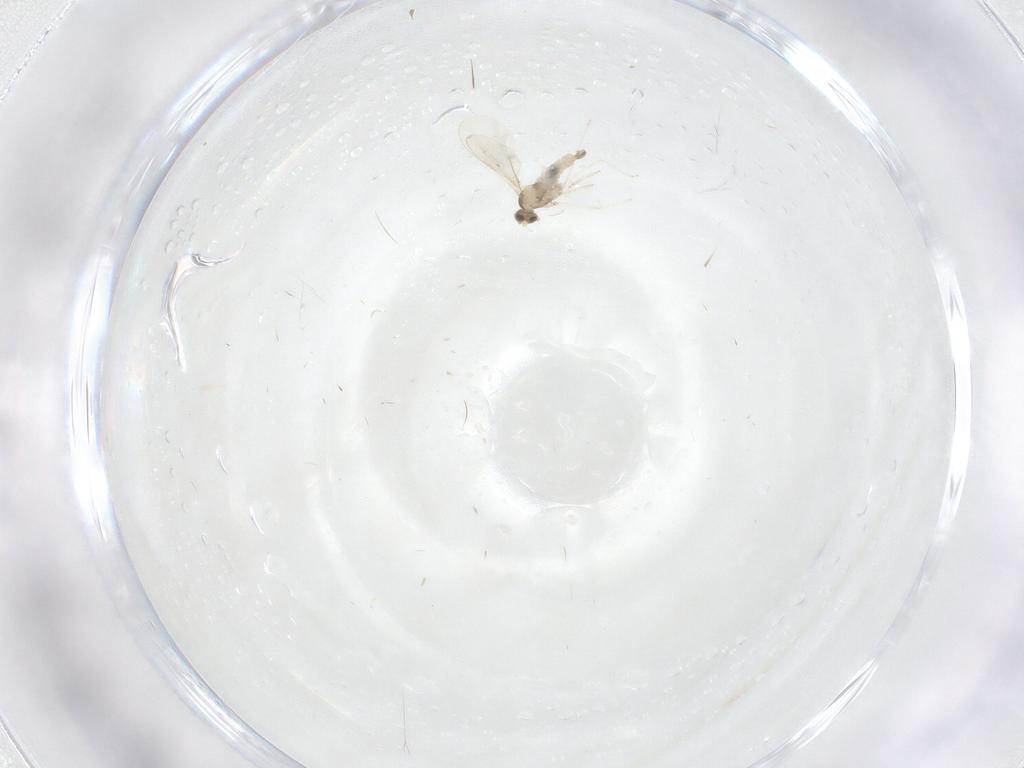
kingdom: Animalia
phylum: Arthropoda
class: Insecta
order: Diptera
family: Cecidomyiidae
